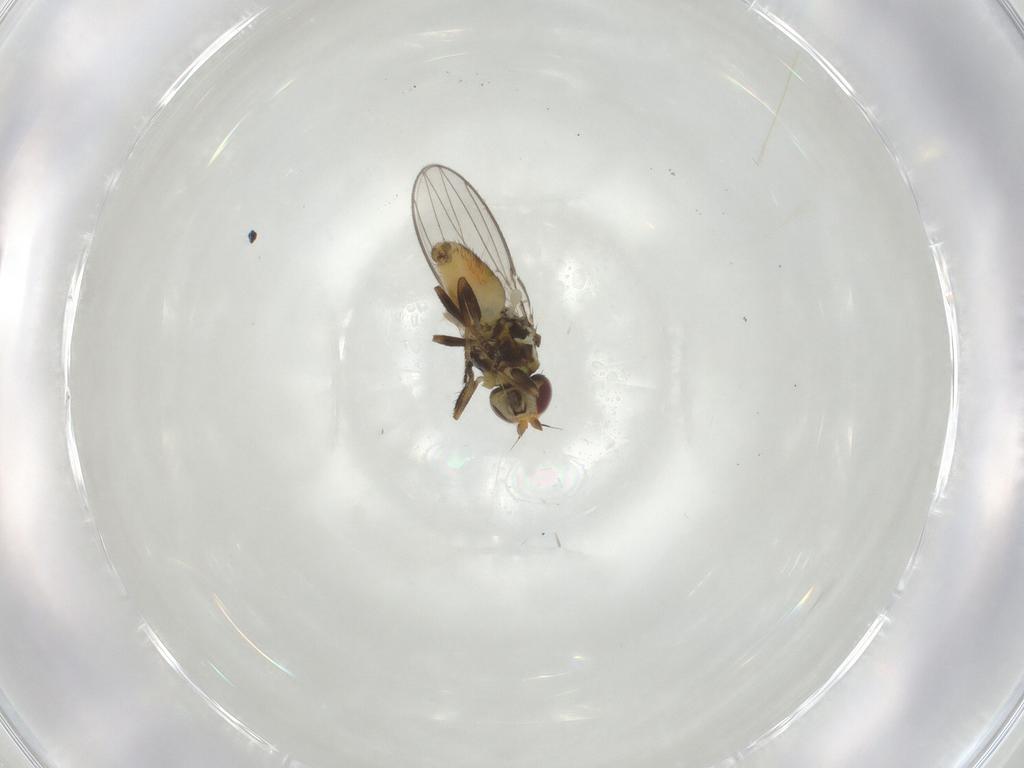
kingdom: Animalia
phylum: Arthropoda
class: Insecta
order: Diptera
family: Chloropidae
